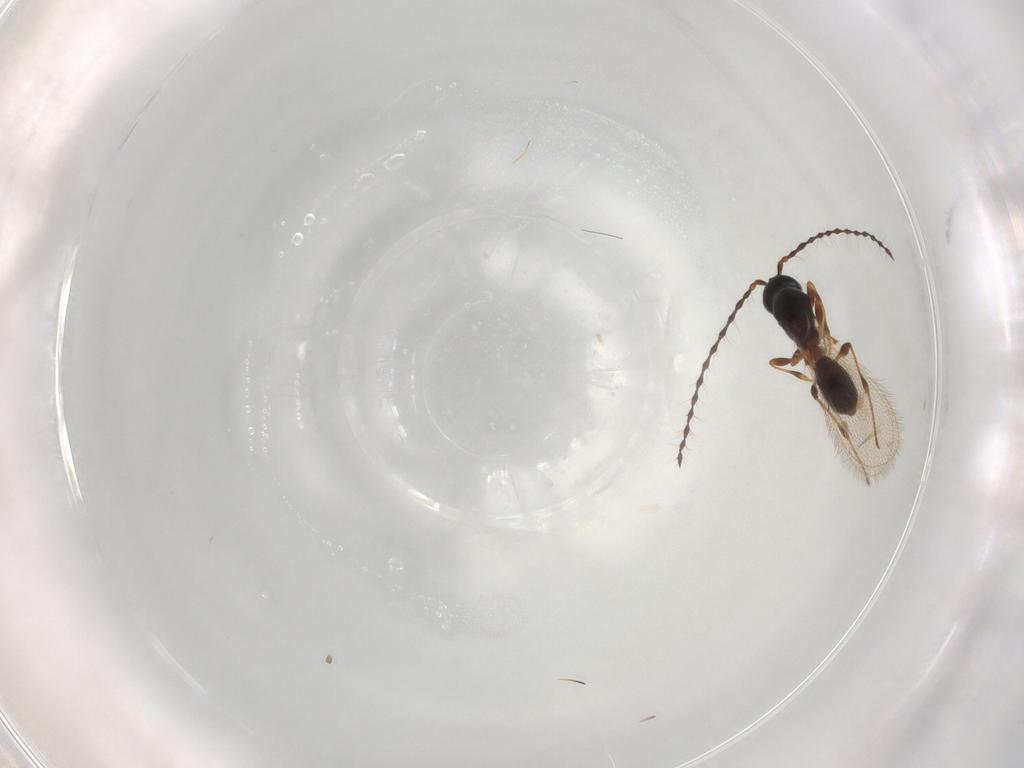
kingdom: Animalia
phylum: Arthropoda
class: Insecta
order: Hymenoptera
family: Diapriidae
